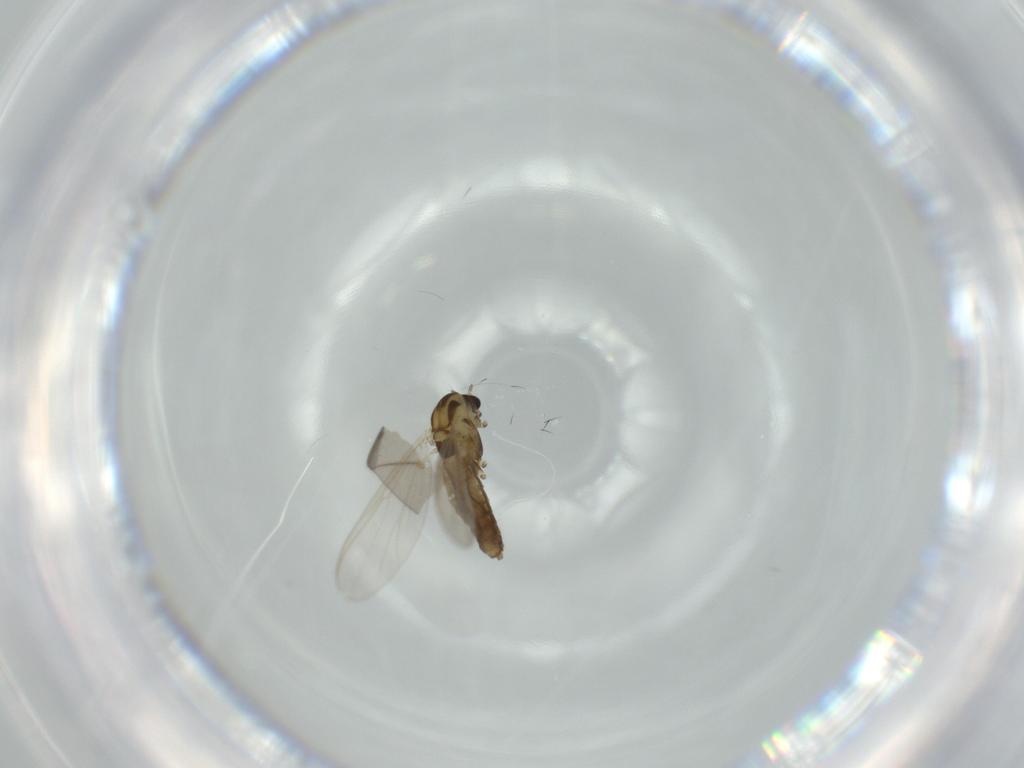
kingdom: Animalia
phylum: Arthropoda
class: Insecta
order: Diptera
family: Chironomidae
